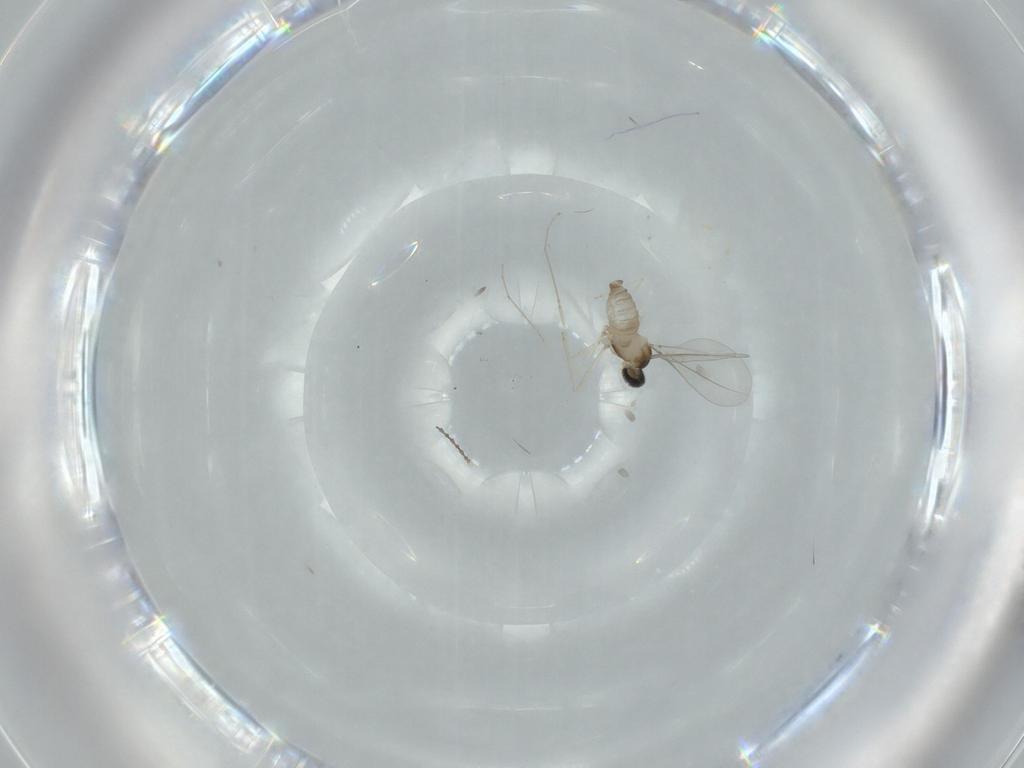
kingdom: Animalia
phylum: Arthropoda
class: Insecta
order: Diptera
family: Cecidomyiidae
